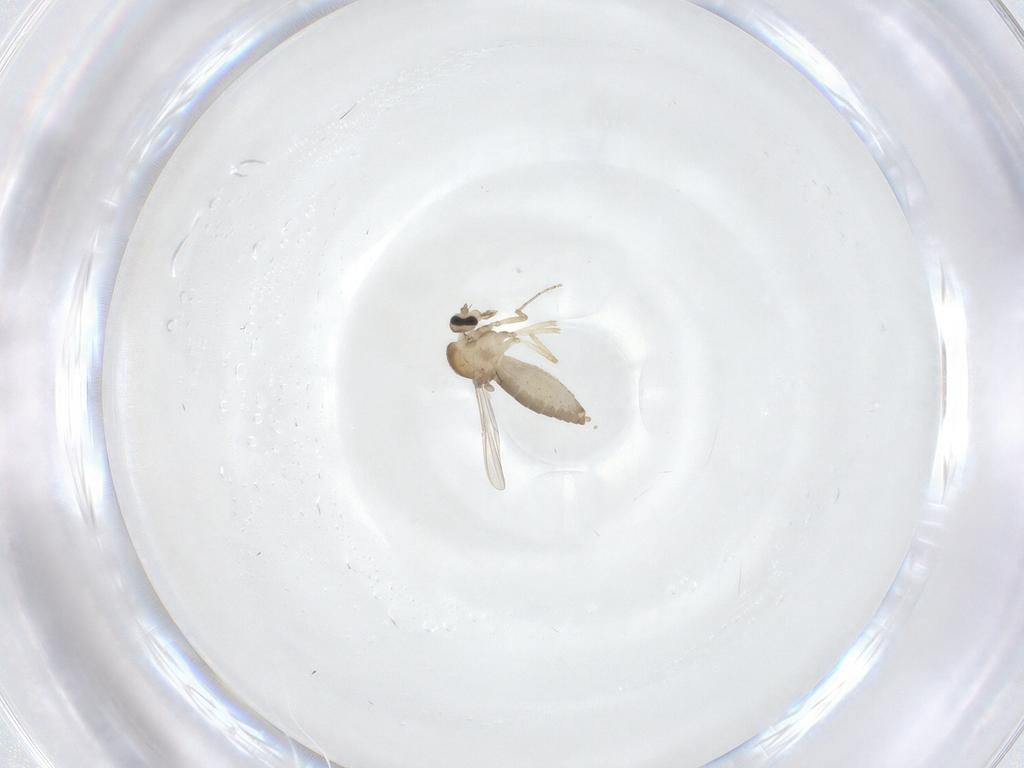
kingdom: Animalia
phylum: Arthropoda
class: Insecta
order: Diptera
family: Ceratopogonidae
